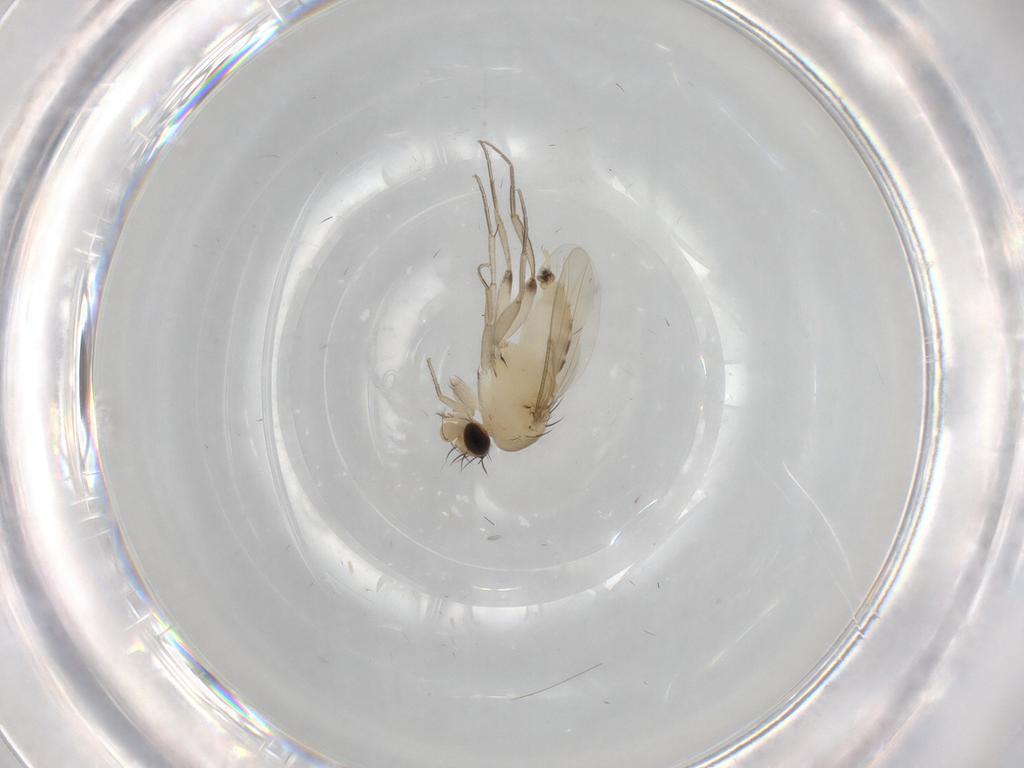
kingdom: Animalia
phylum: Arthropoda
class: Insecta
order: Diptera
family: Phoridae
